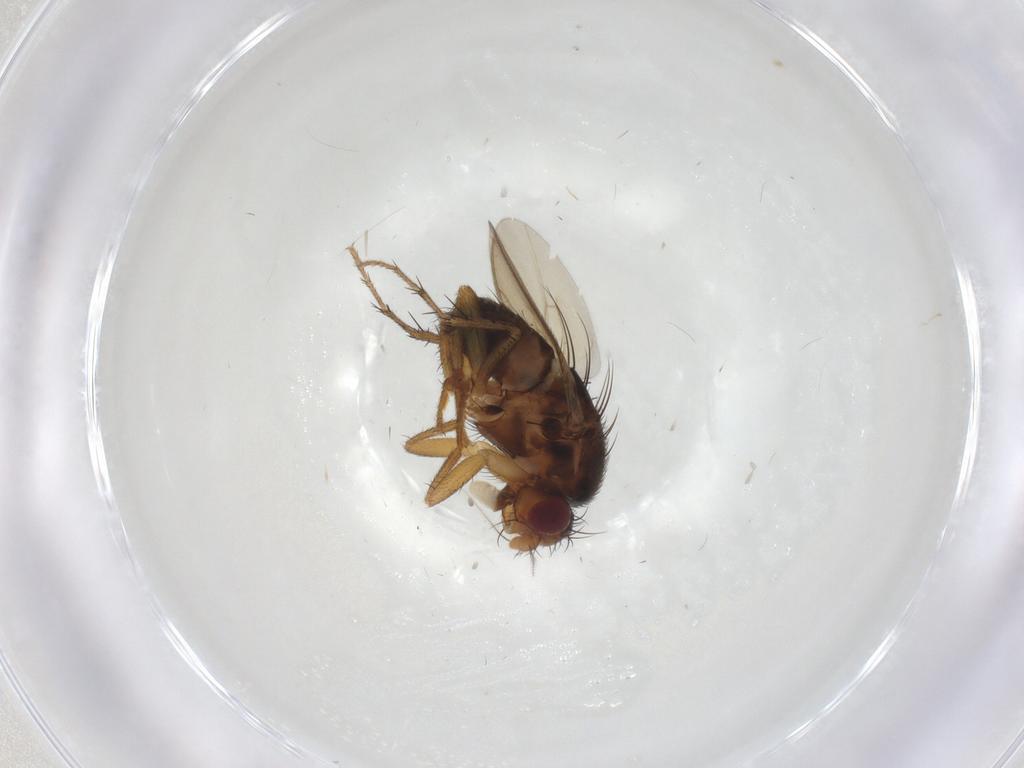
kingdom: Animalia
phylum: Arthropoda
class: Insecta
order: Diptera
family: Sphaeroceridae
